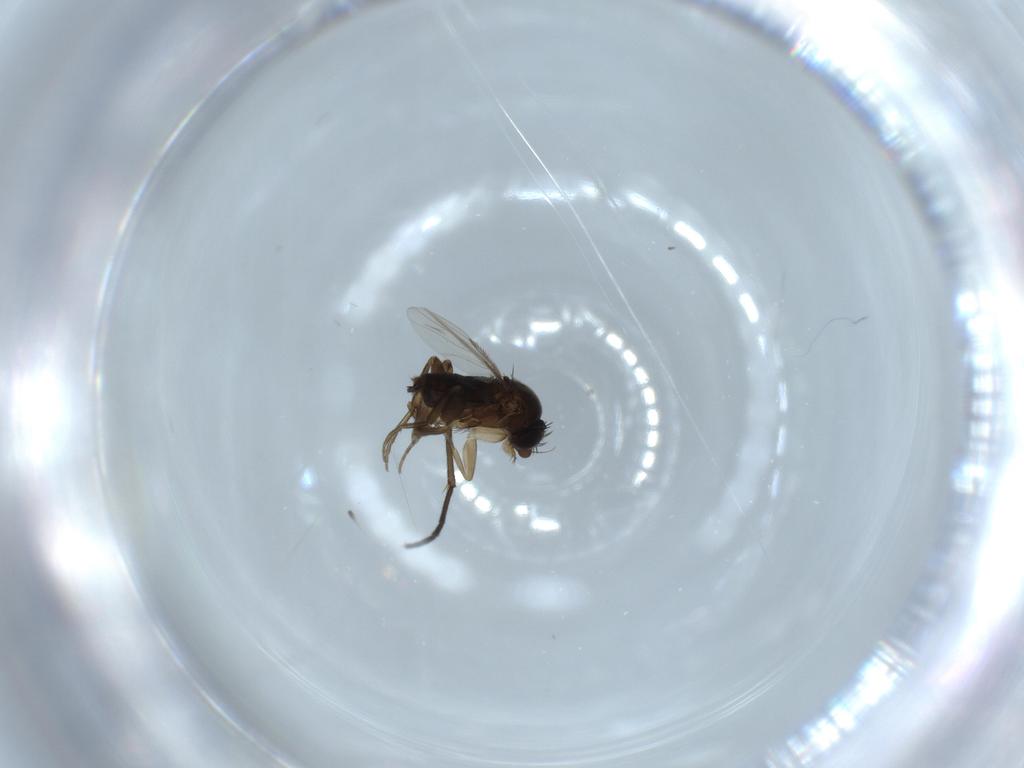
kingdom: Animalia
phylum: Arthropoda
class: Insecta
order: Diptera
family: Phoridae
